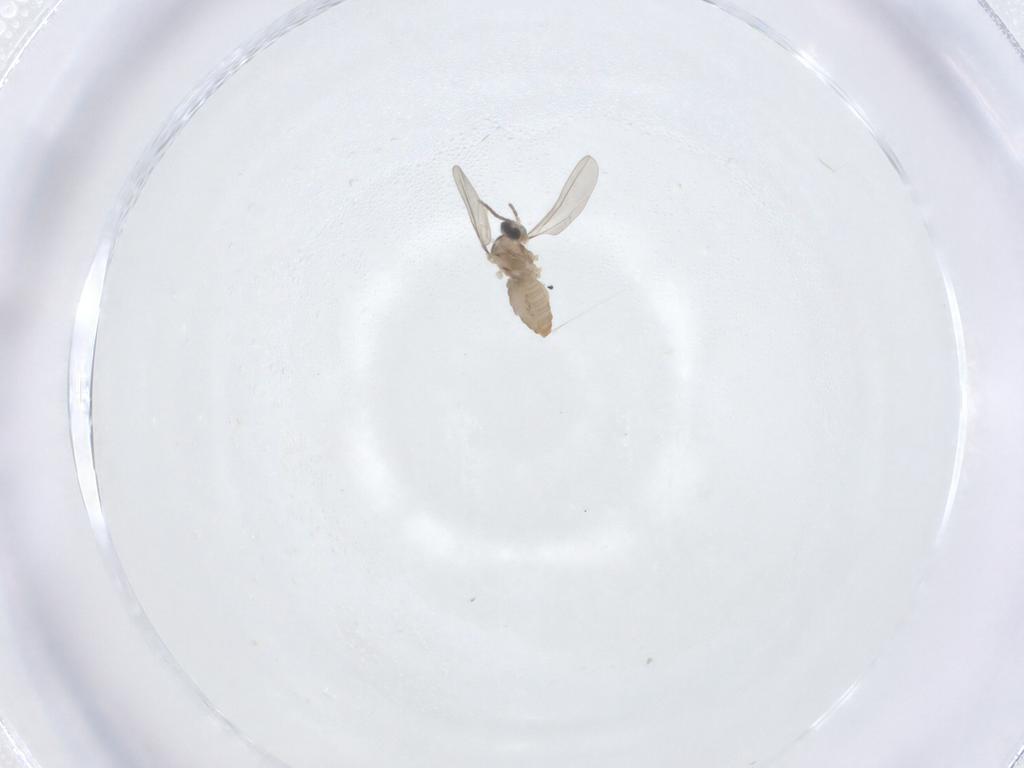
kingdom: Animalia
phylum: Arthropoda
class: Insecta
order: Diptera
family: Cecidomyiidae
